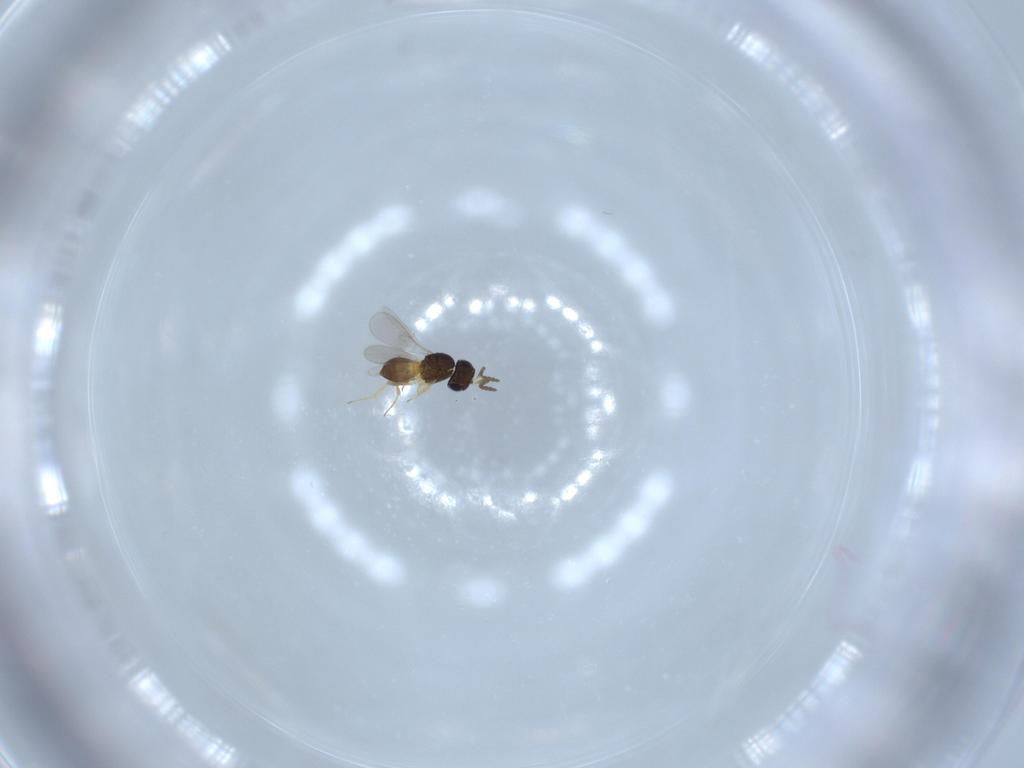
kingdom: Animalia
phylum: Arthropoda
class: Insecta
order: Hymenoptera
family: Scelionidae
